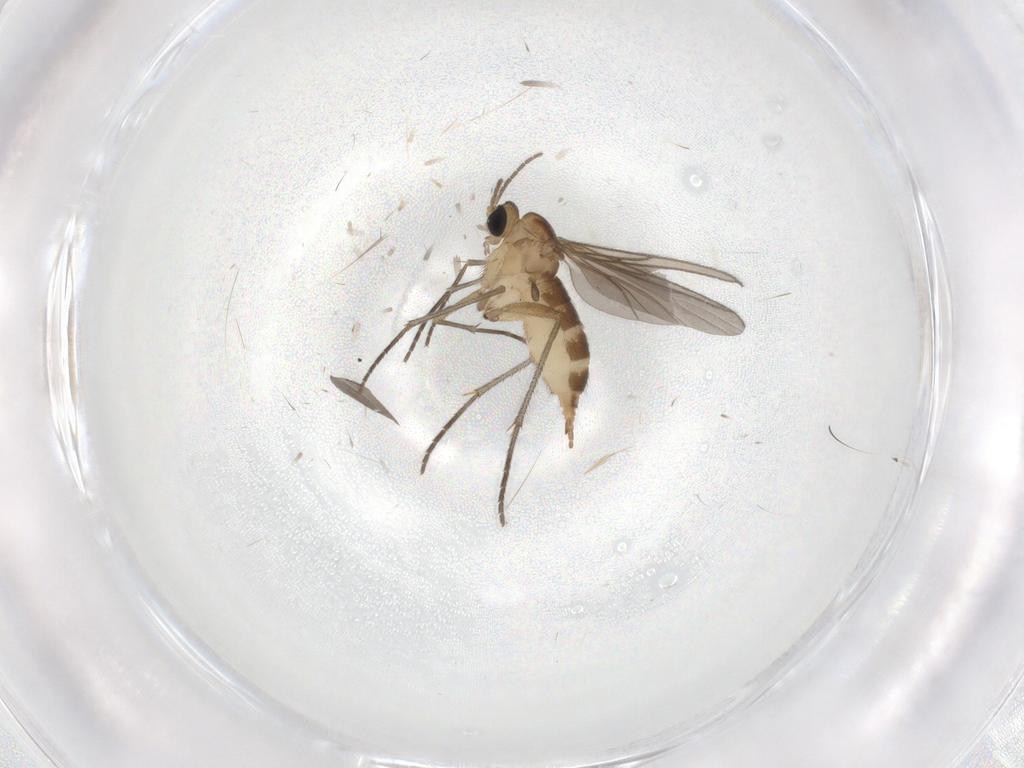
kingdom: Animalia
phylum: Arthropoda
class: Insecta
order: Diptera
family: Sciaridae
